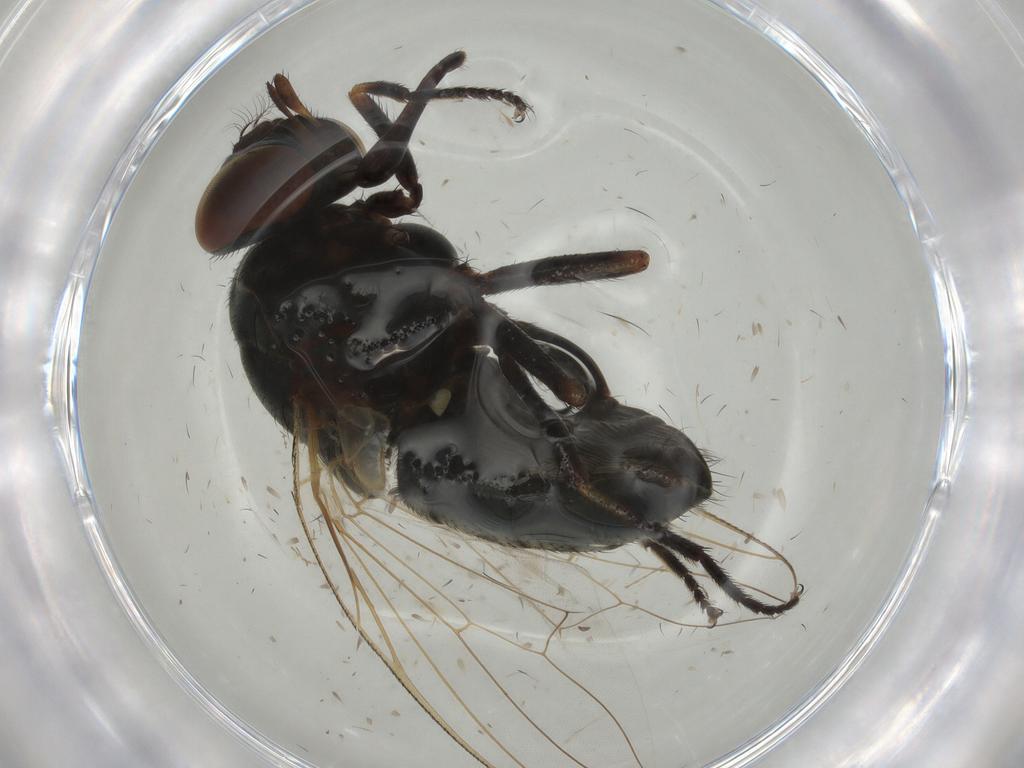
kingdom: Animalia
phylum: Arthropoda
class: Insecta
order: Diptera
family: Muscidae
